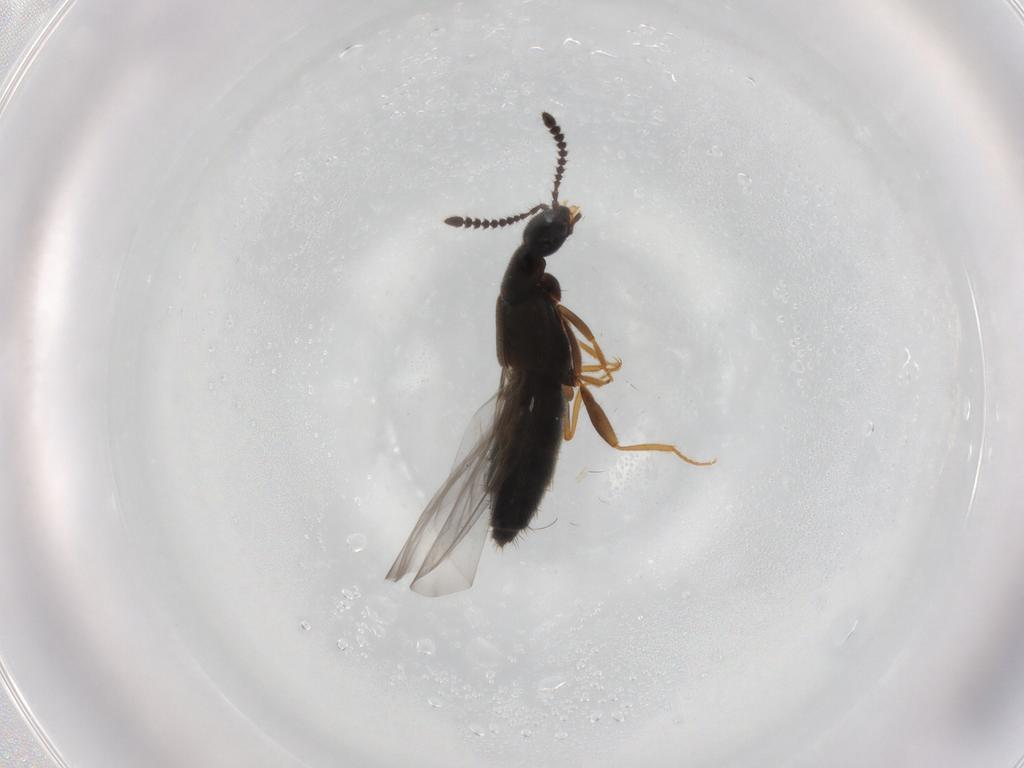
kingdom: Animalia
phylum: Arthropoda
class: Insecta
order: Coleoptera
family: Staphylinidae
